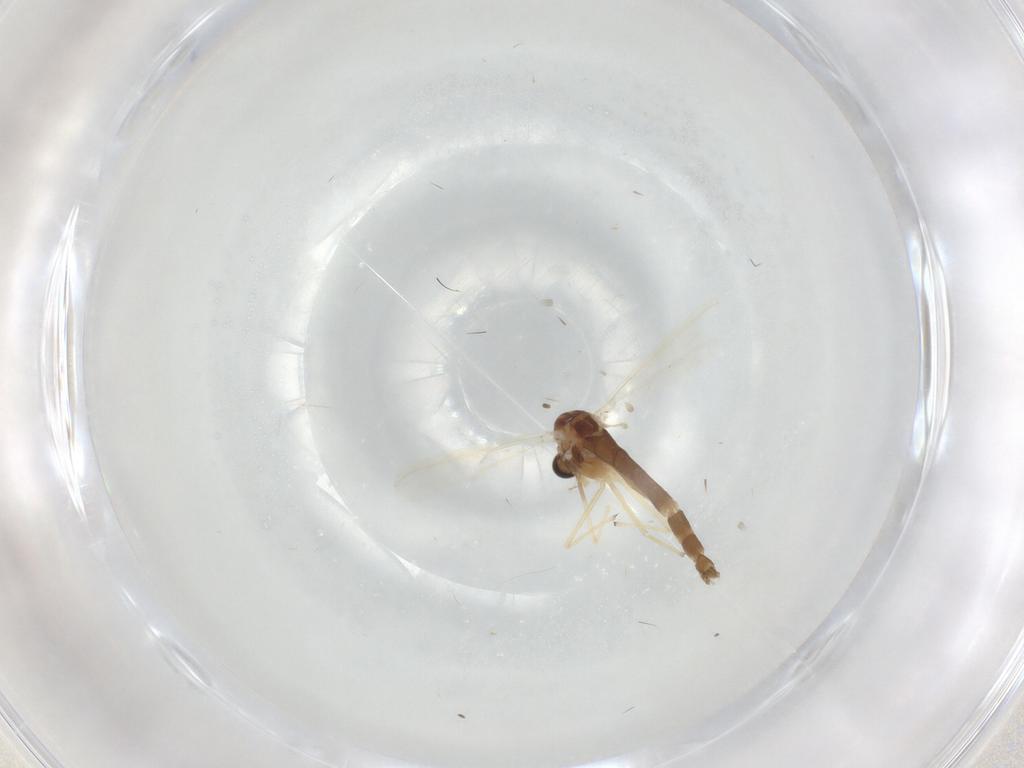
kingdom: Animalia
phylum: Arthropoda
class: Insecta
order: Diptera
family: Chironomidae
